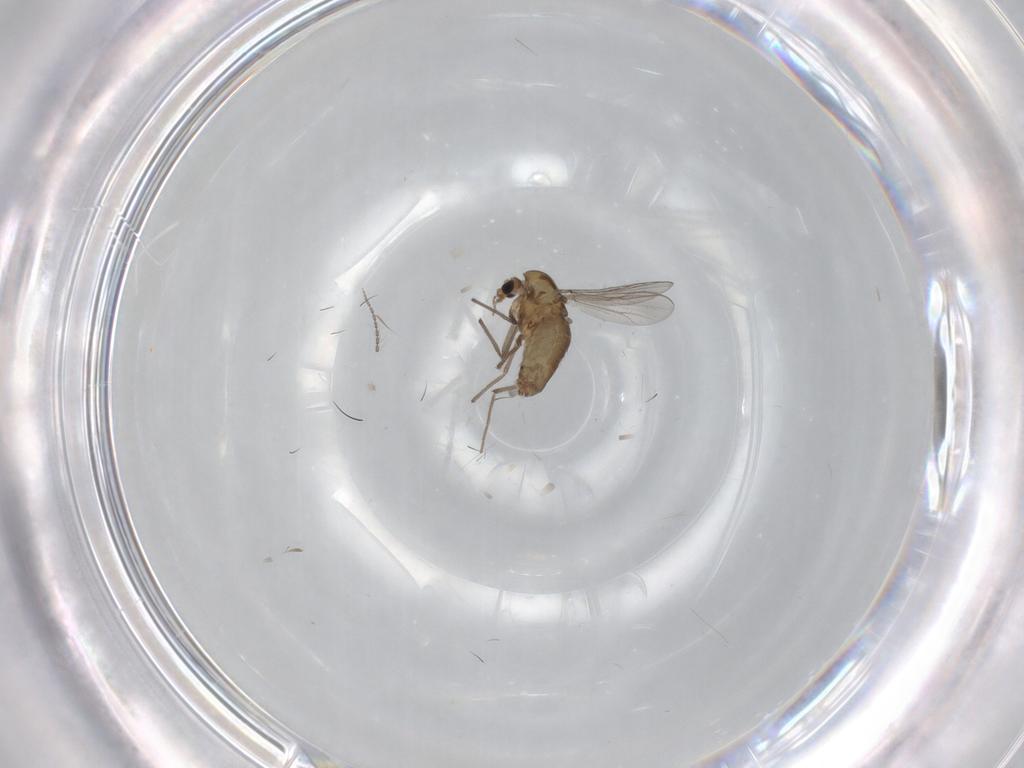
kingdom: Animalia
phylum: Arthropoda
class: Insecta
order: Diptera
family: Chironomidae
